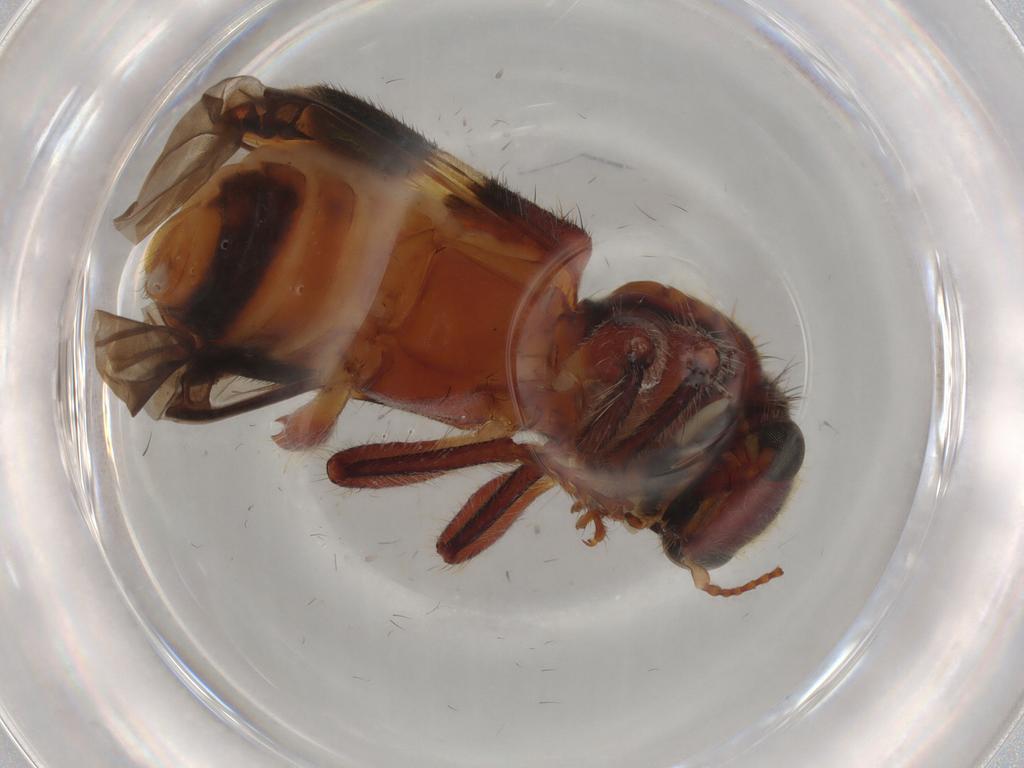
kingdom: Animalia
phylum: Arthropoda
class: Insecta
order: Coleoptera
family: Cleridae
